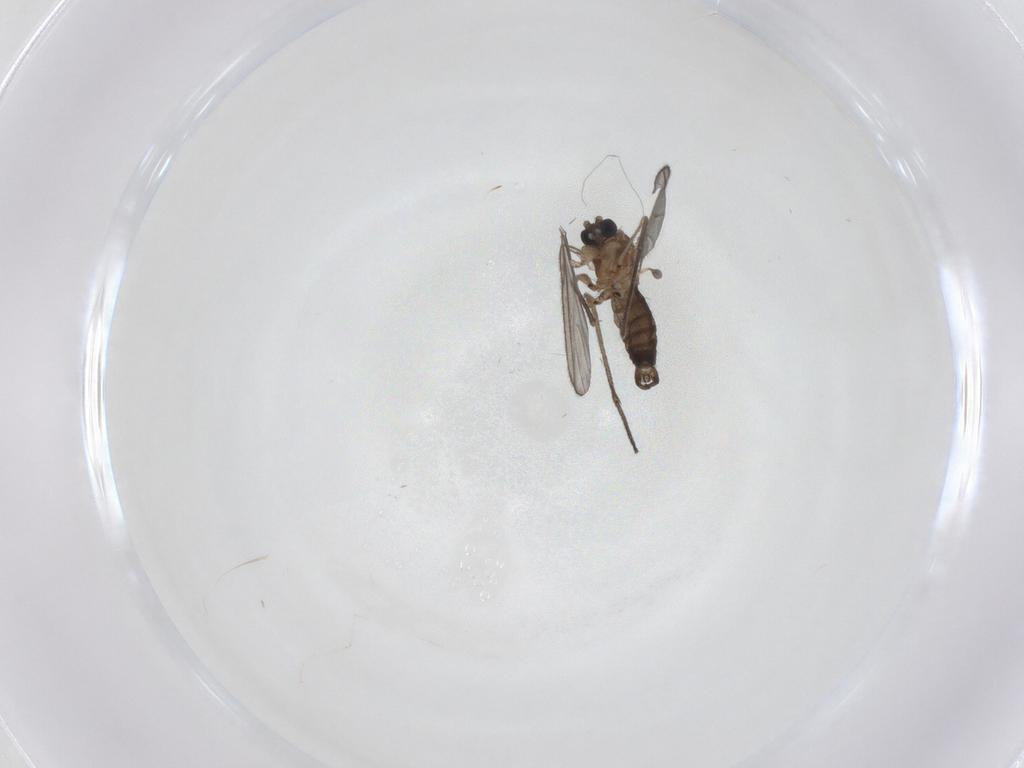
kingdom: Animalia
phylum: Arthropoda
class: Insecta
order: Diptera
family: Sciaridae
